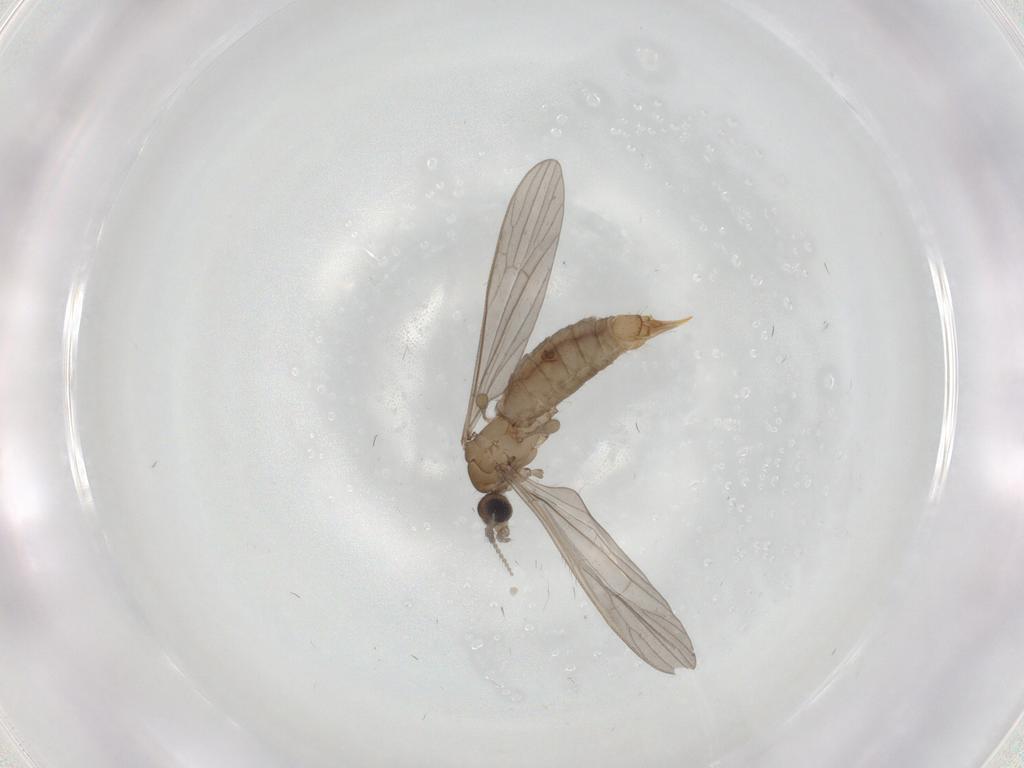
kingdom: Animalia
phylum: Arthropoda
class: Insecta
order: Diptera
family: Limoniidae
